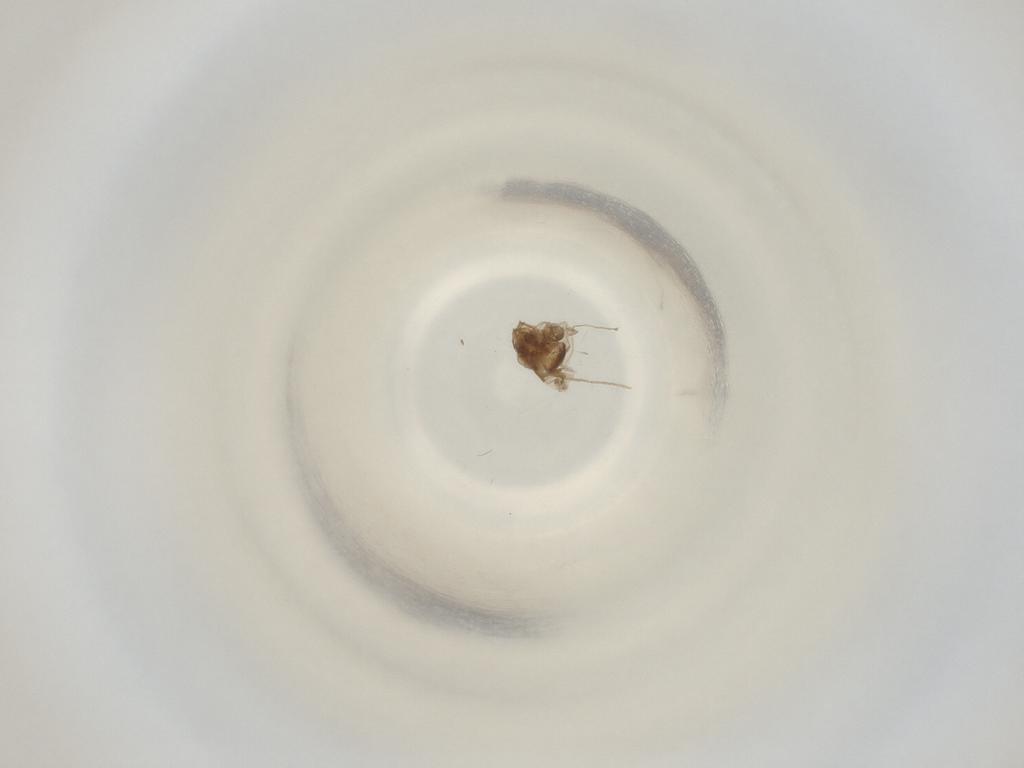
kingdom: Animalia
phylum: Arthropoda
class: Insecta
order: Diptera
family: Cecidomyiidae
